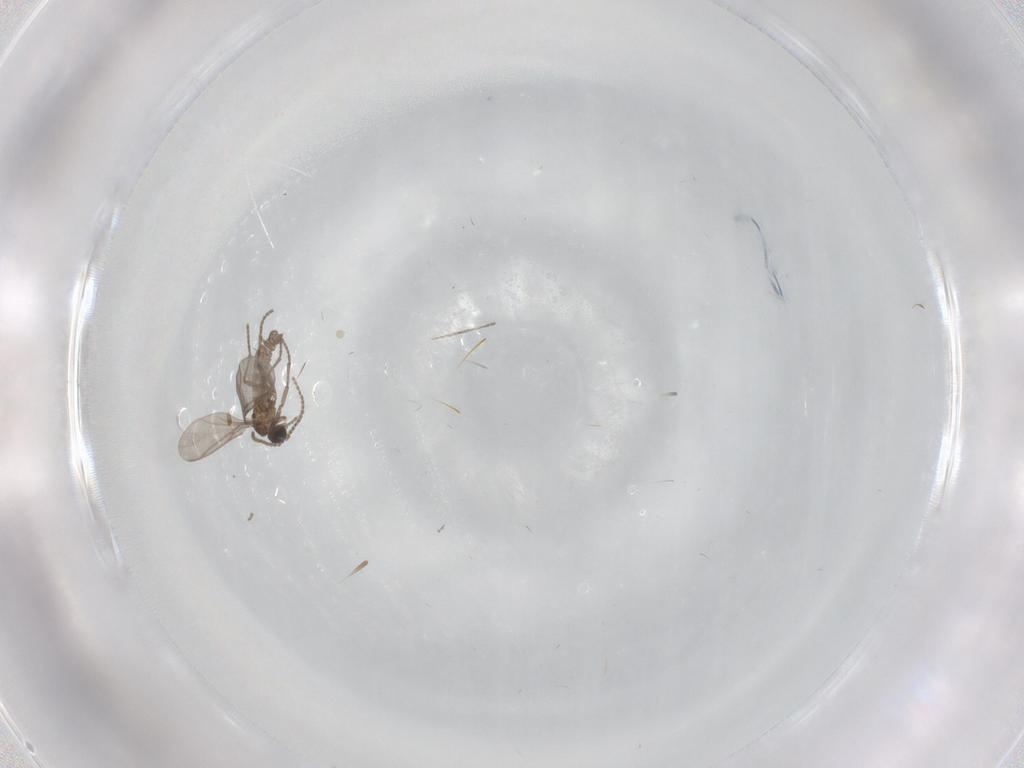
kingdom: Animalia
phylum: Arthropoda
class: Insecta
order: Diptera
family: Sciaridae
